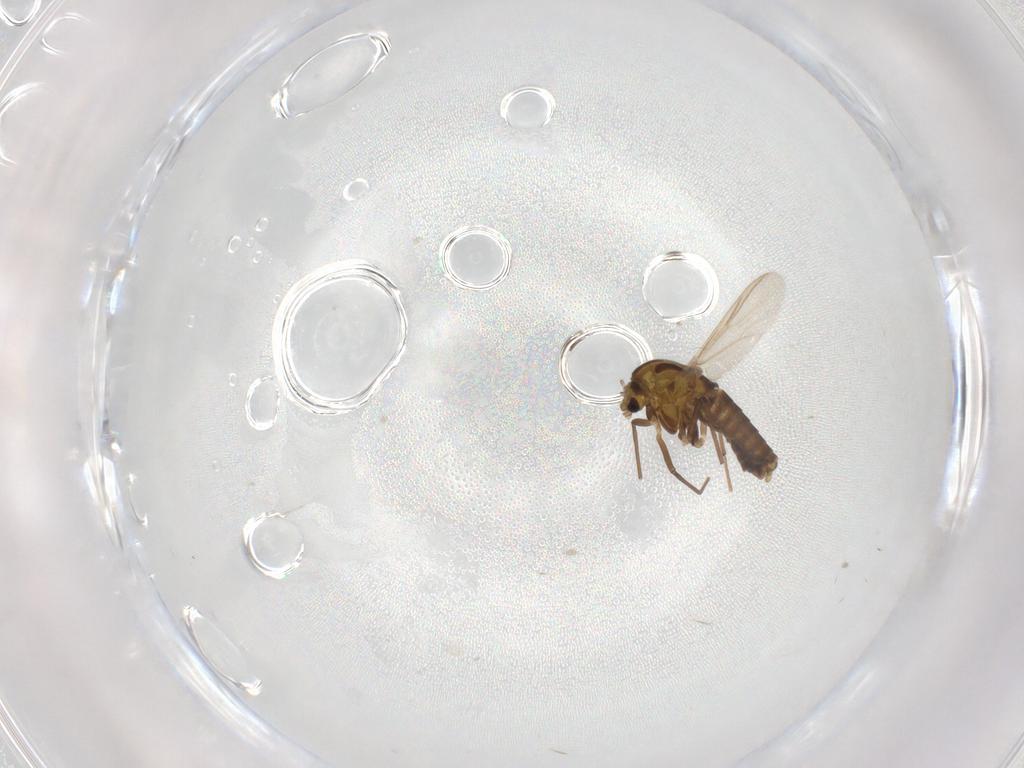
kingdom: Animalia
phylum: Arthropoda
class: Insecta
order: Diptera
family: Chironomidae
